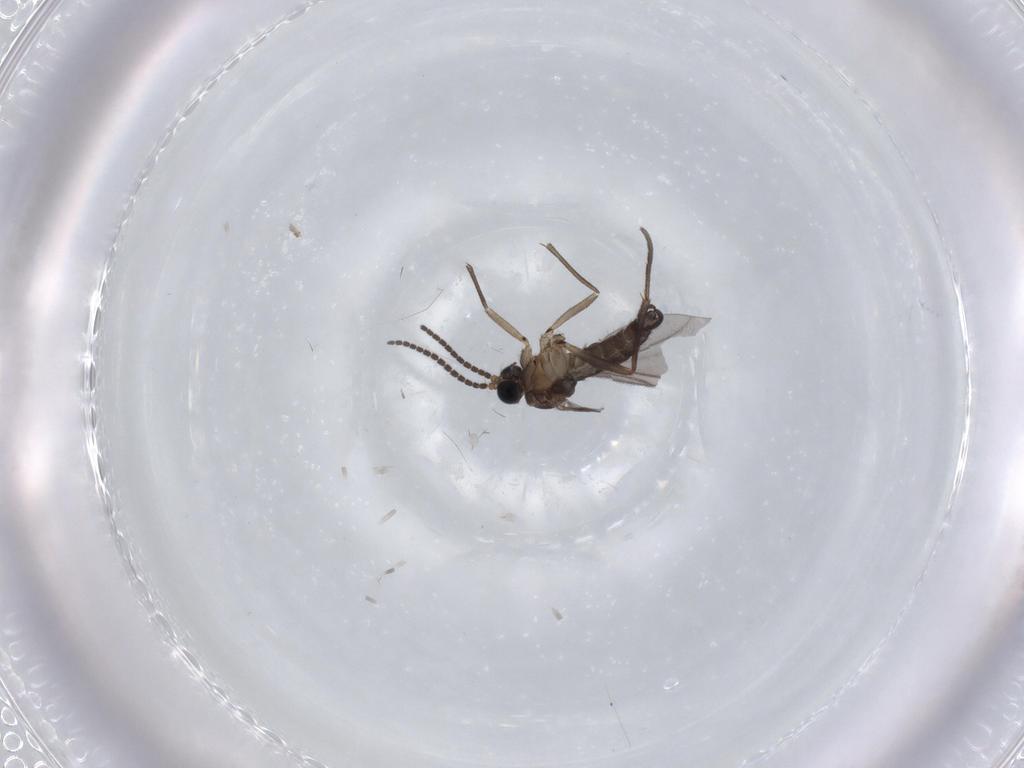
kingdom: Animalia
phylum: Arthropoda
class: Insecta
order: Diptera
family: Sciaridae
